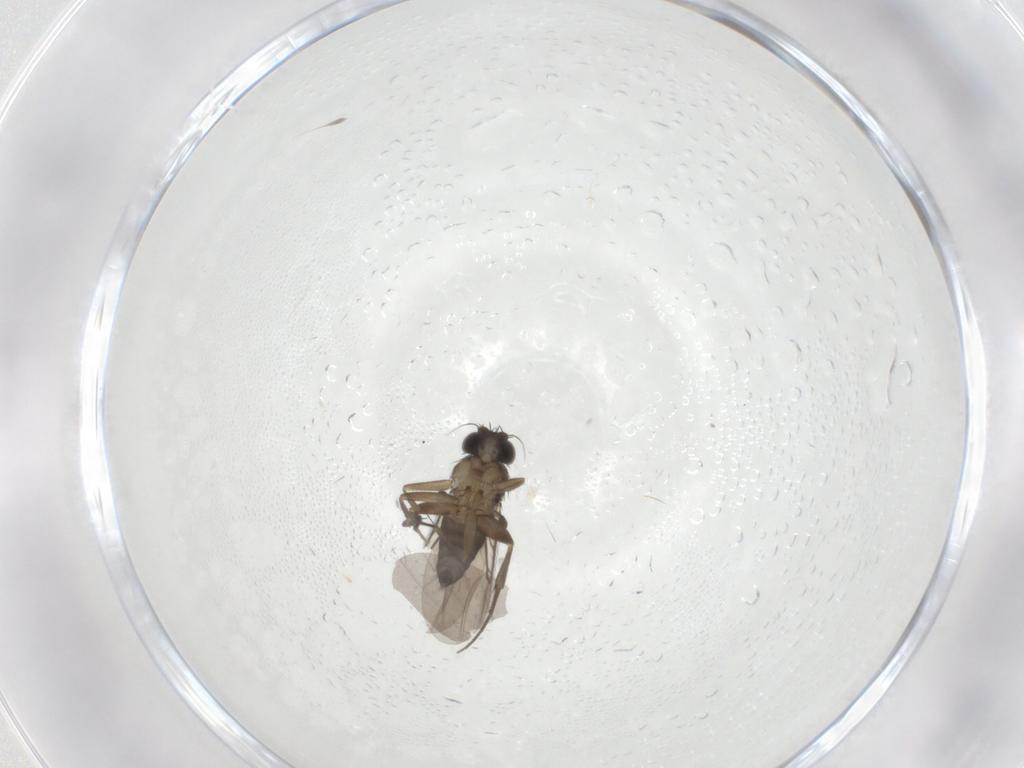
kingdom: Animalia
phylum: Arthropoda
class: Insecta
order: Diptera
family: Phoridae
